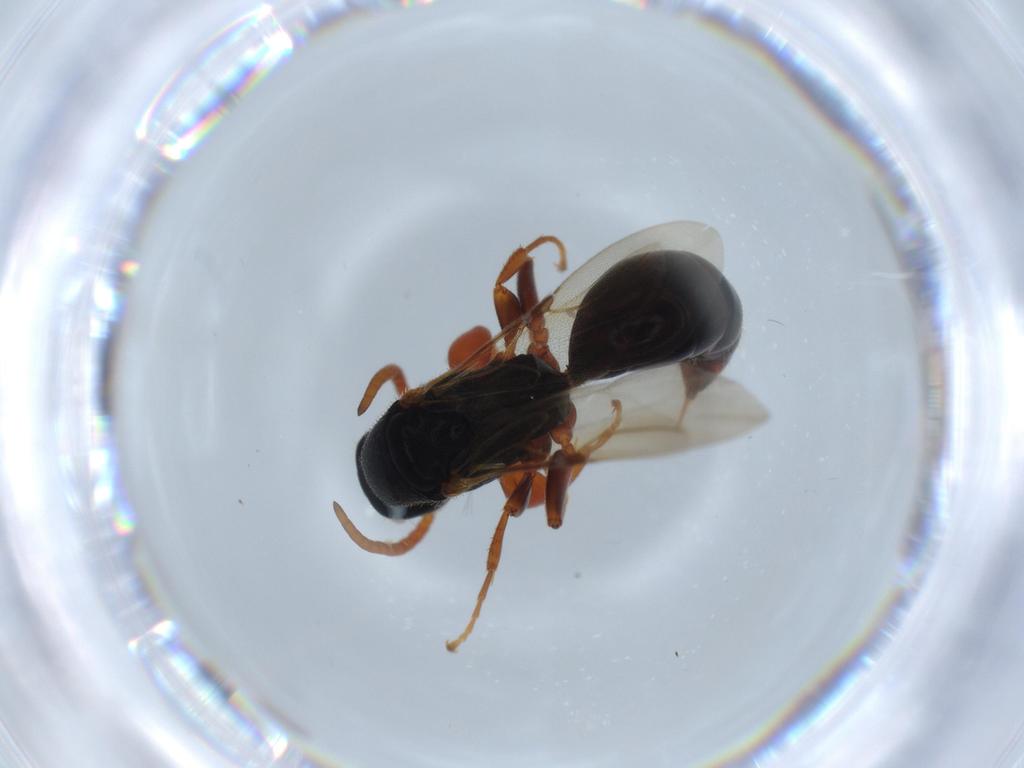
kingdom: Animalia
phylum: Arthropoda
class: Insecta
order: Hymenoptera
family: Bethylidae
